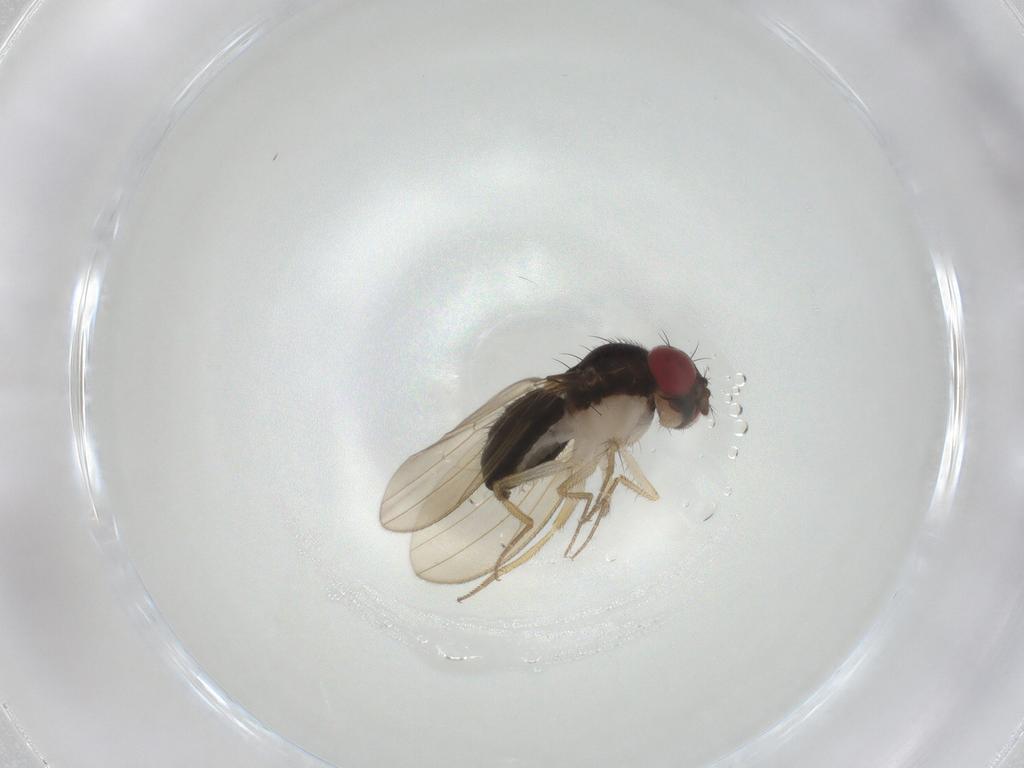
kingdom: Animalia
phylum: Arthropoda
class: Insecta
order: Diptera
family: Drosophilidae
